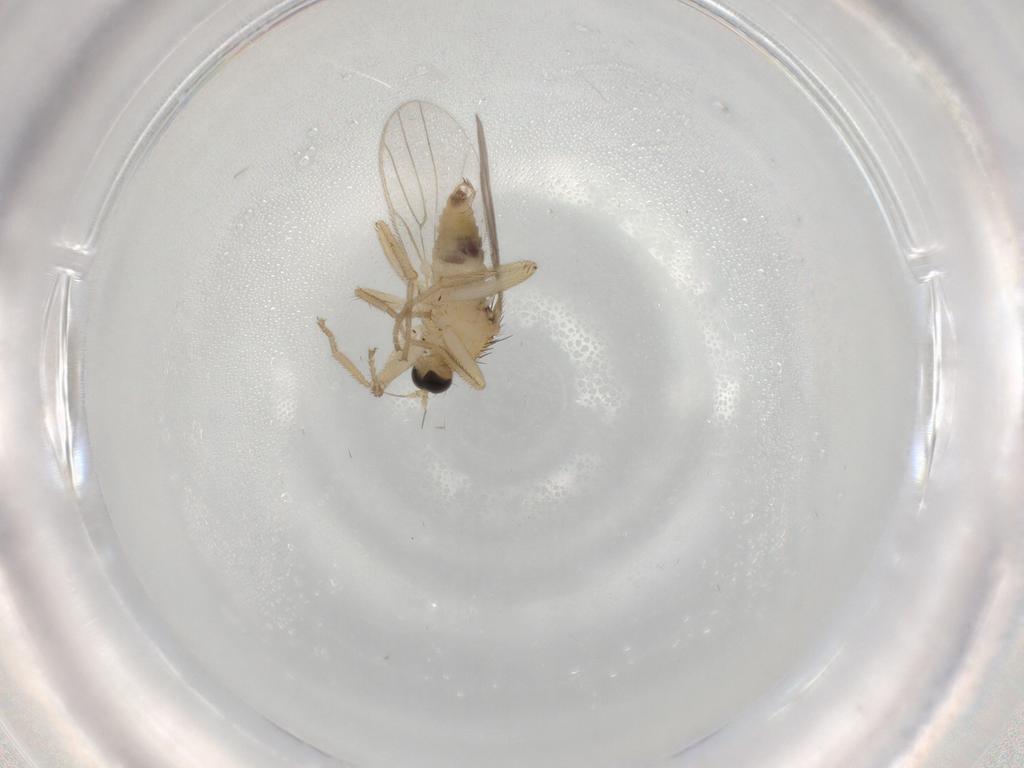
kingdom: Animalia
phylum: Arthropoda
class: Insecta
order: Diptera
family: Hybotidae
